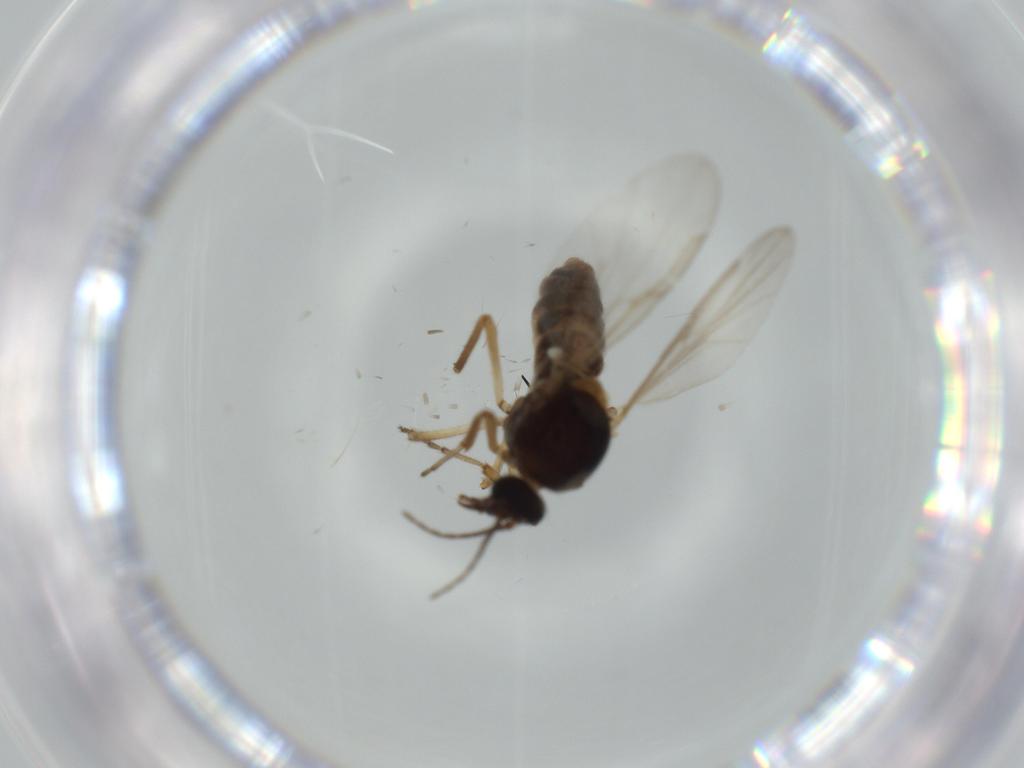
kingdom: Animalia
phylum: Arthropoda
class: Insecta
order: Diptera
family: Ceratopogonidae
